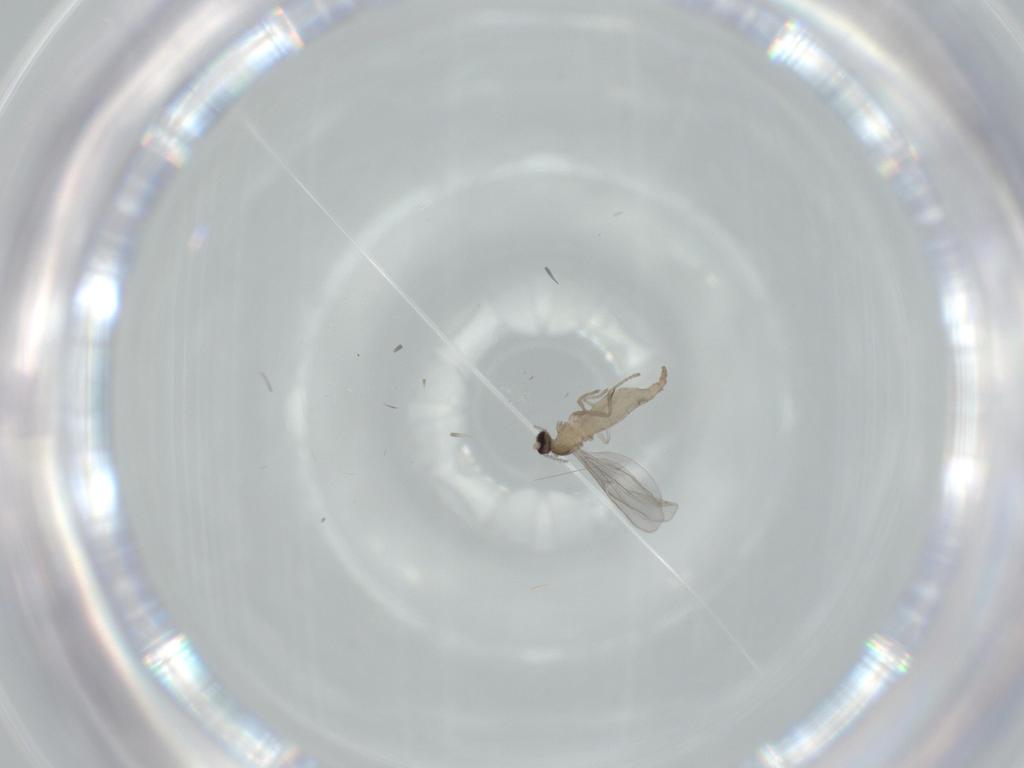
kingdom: Animalia
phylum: Arthropoda
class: Insecta
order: Diptera
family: Cecidomyiidae
